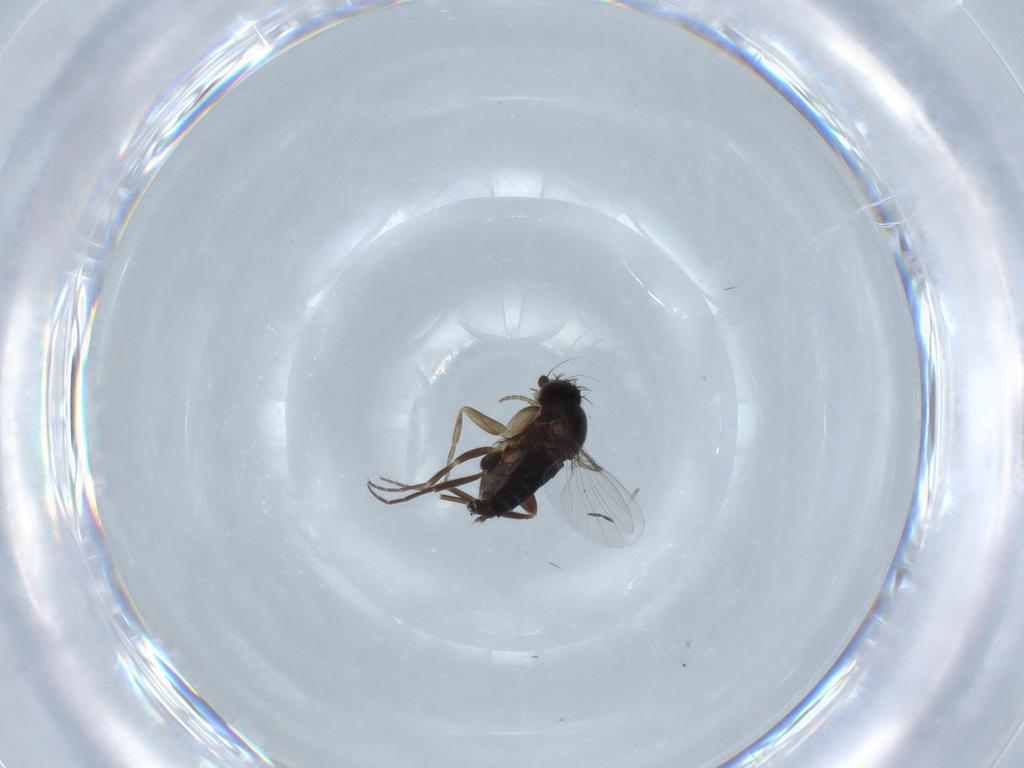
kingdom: Animalia
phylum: Arthropoda
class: Insecta
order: Diptera
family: Phoridae
